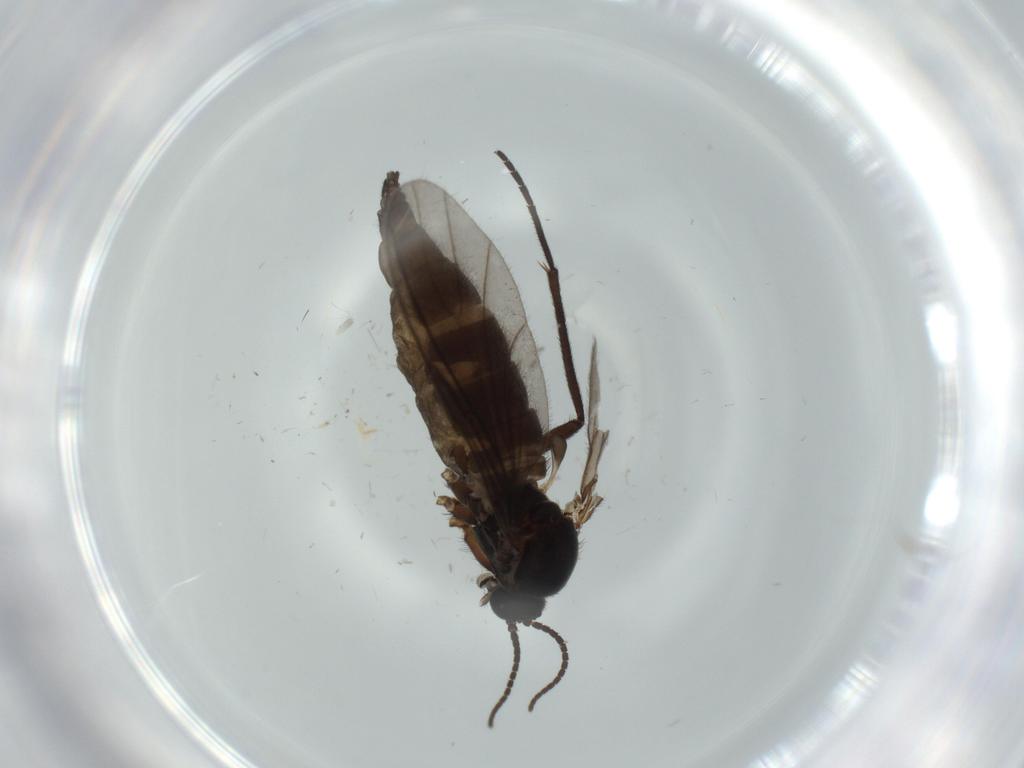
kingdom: Animalia
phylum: Arthropoda
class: Insecta
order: Diptera
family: Sciaridae
